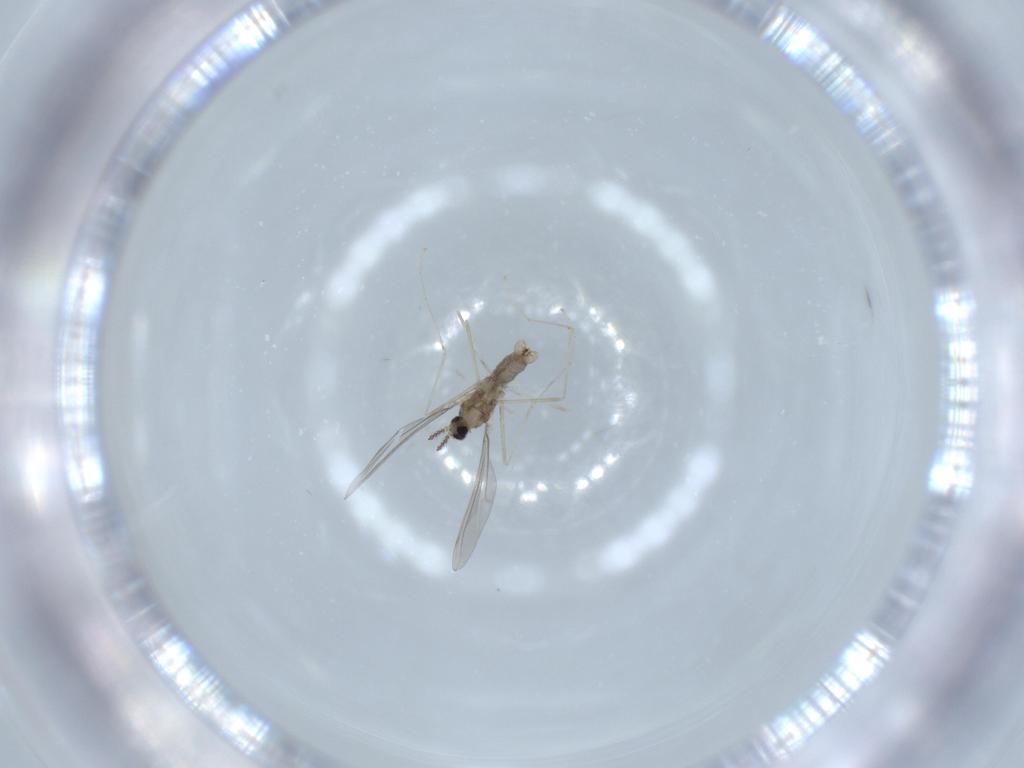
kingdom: Animalia
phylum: Arthropoda
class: Insecta
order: Diptera
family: Cecidomyiidae
